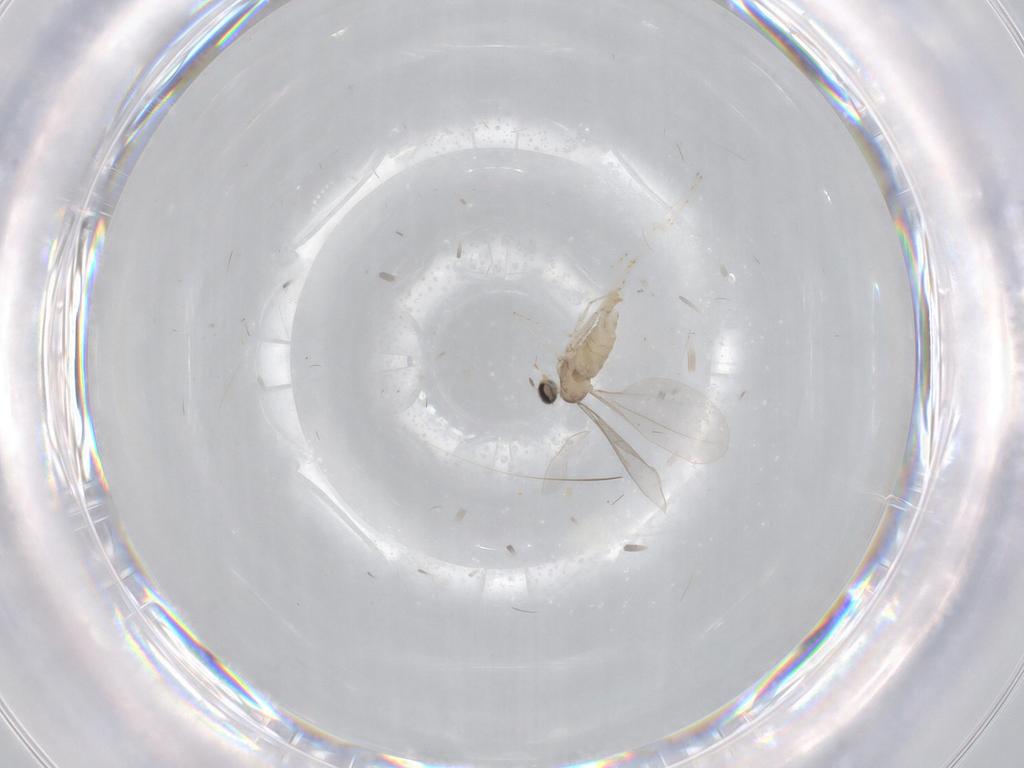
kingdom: Animalia
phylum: Arthropoda
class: Insecta
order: Diptera
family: Cecidomyiidae
